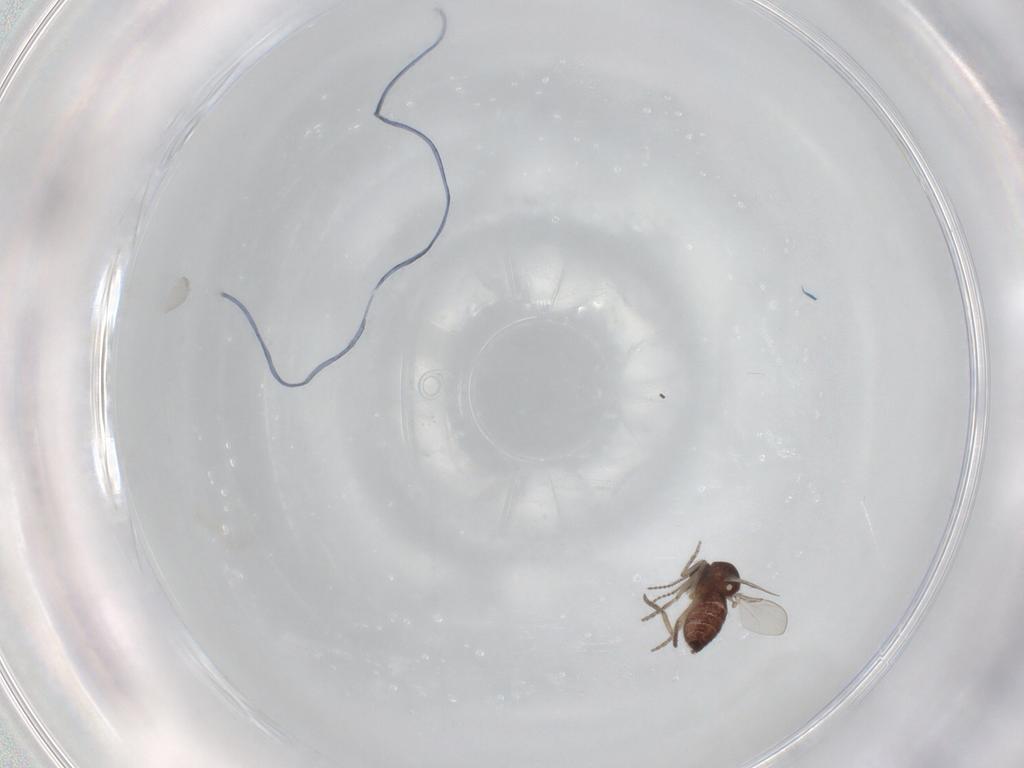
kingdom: Animalia
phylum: Arthropoda
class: Insecta
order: Diptera
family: Ceratopogonidae
